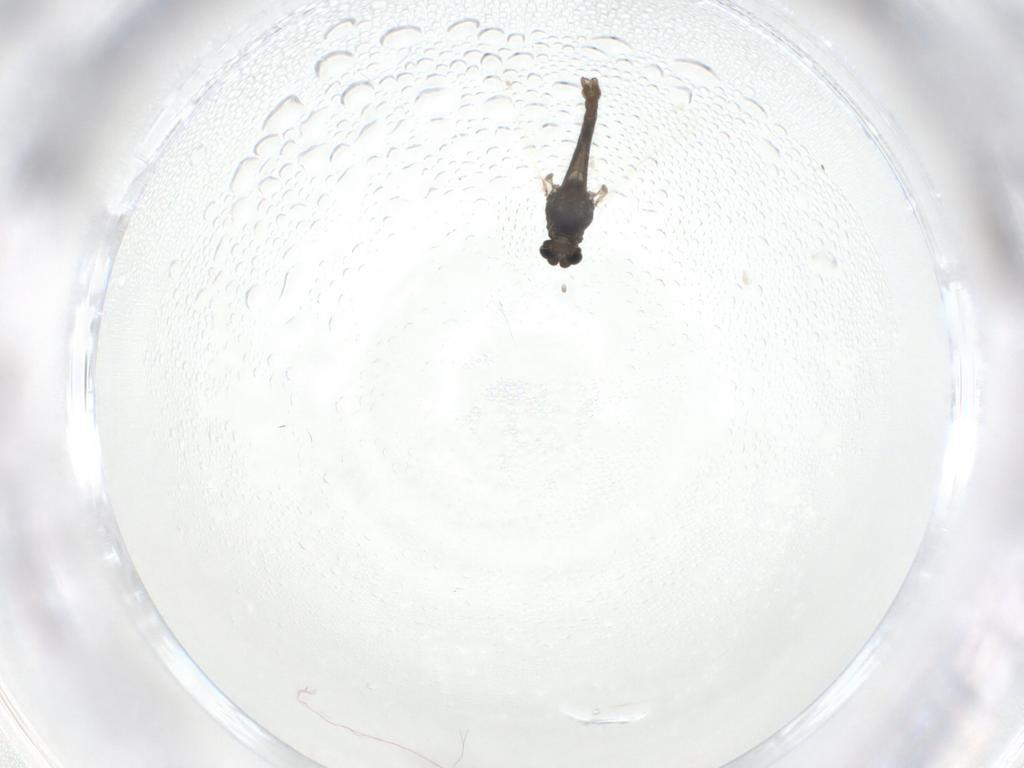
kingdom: Animalia
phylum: Arthropoda
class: Insecta
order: Diptera
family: Chironomidae
